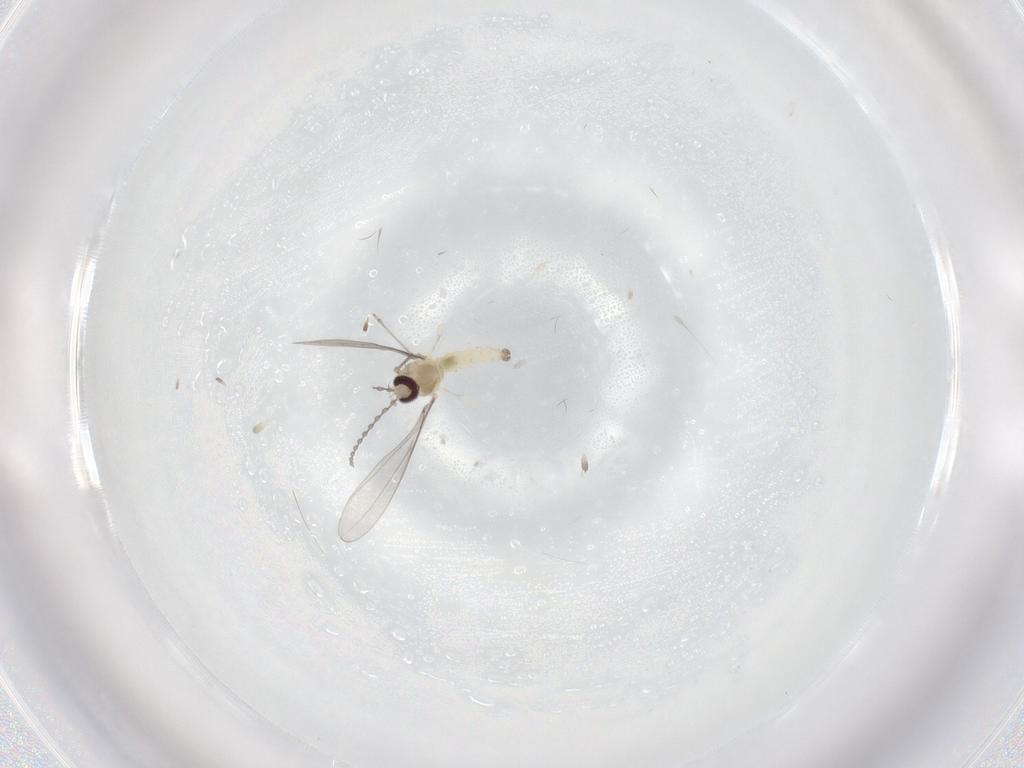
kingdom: Animalia
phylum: Arthropoda
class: Insecta
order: Diptera
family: Cecidomyiidae
